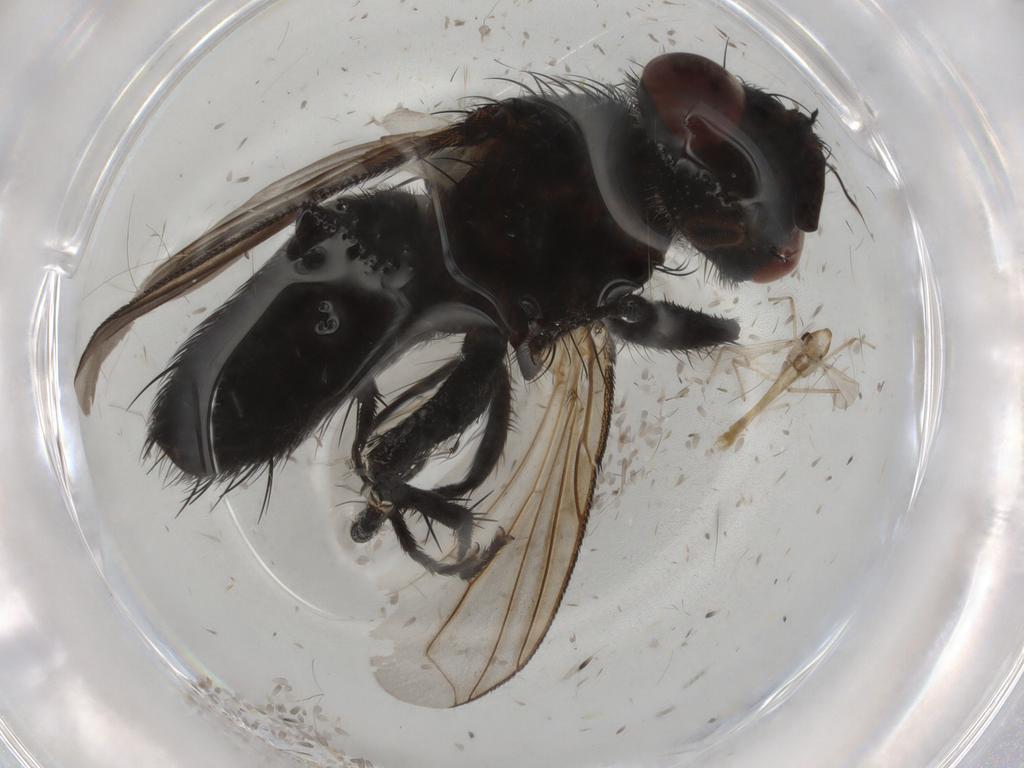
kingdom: Animalia
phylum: Arthropoda
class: Insecta
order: Diptera
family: Tachinidae
